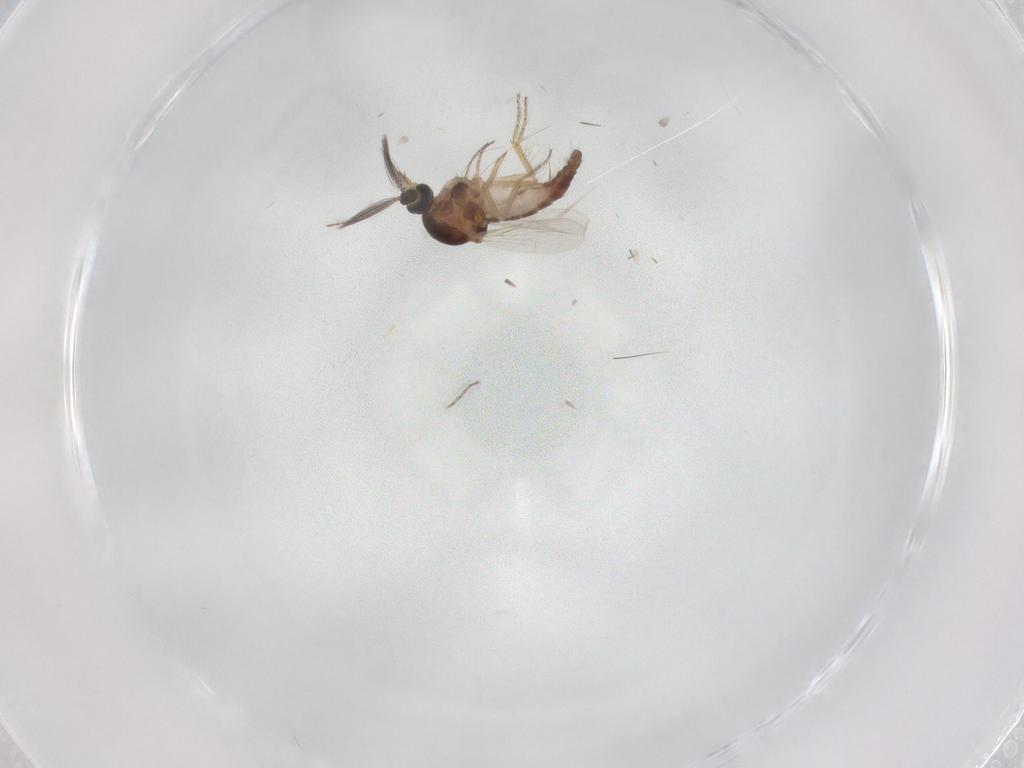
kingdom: Animalia
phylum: Arthropoda
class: Insecta
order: Diptera
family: Ceratopogonidae
